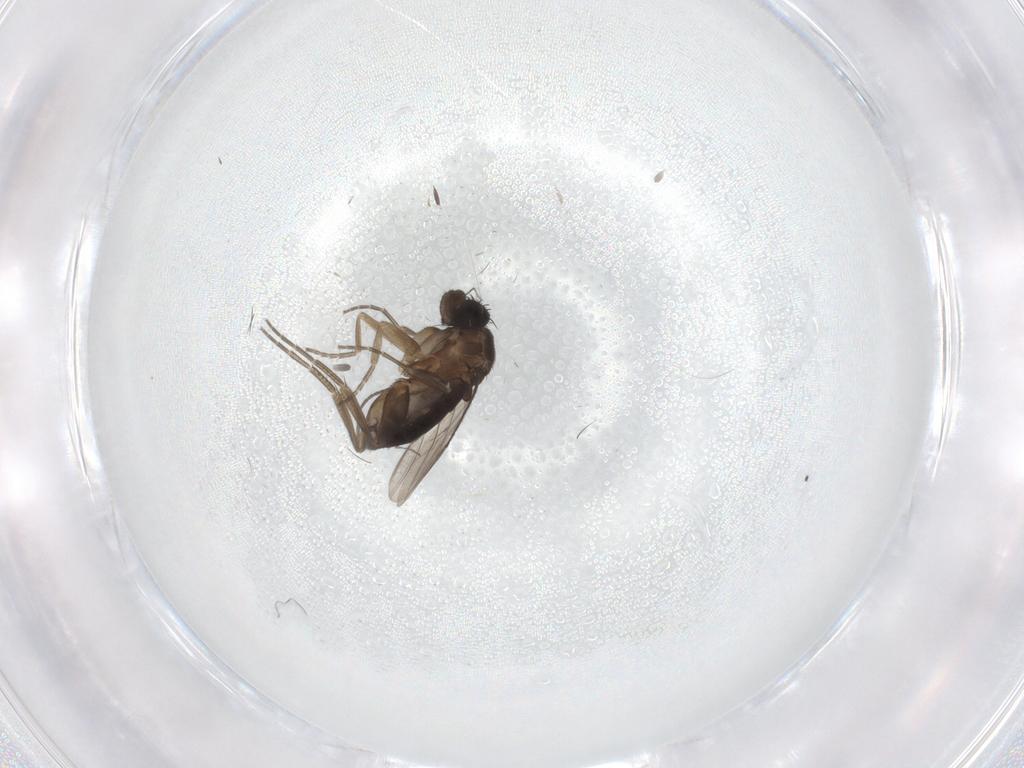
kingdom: Animalia
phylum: Arthropoda
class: Insecta
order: Diptera
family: Phoridae
